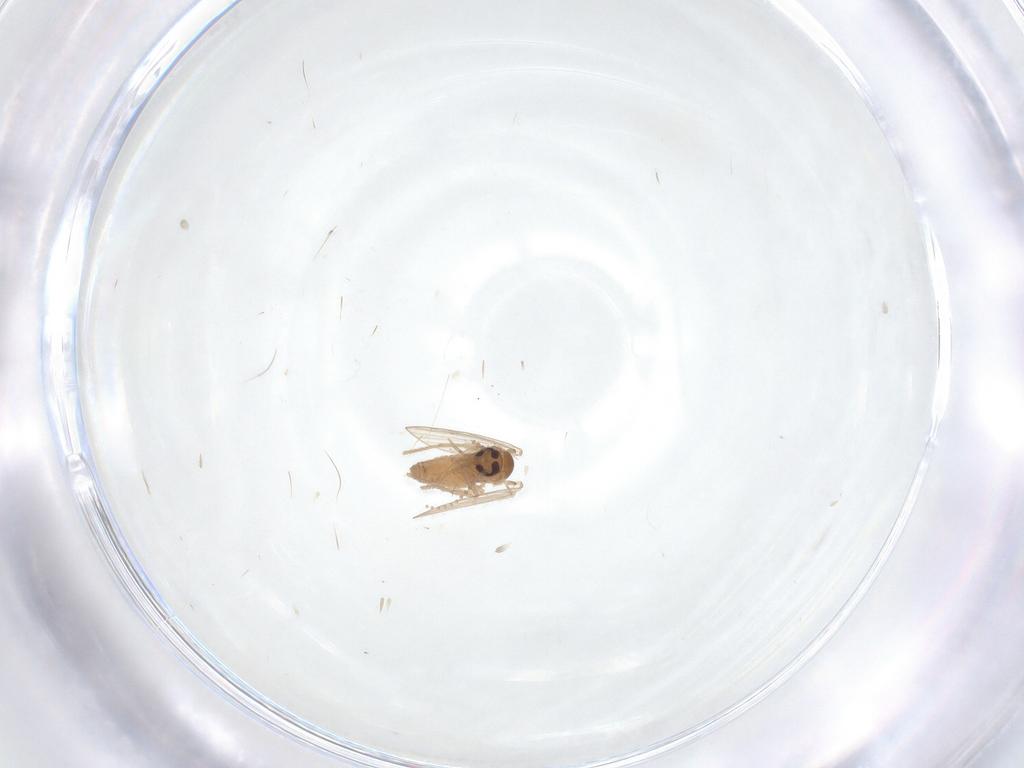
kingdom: Animalia
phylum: Arthropoda
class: Insecta
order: Diptera
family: Psychodidae
